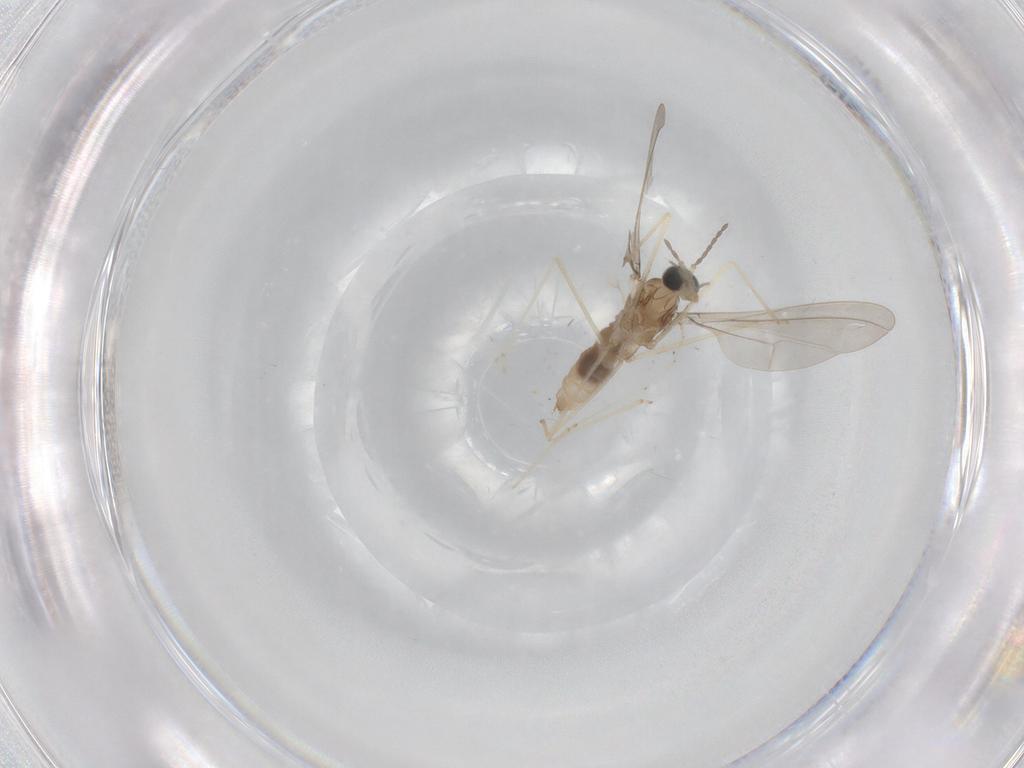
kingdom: Animalia
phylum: Arthropoda
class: Insecta
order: Diptera
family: Cecidomyiidae
